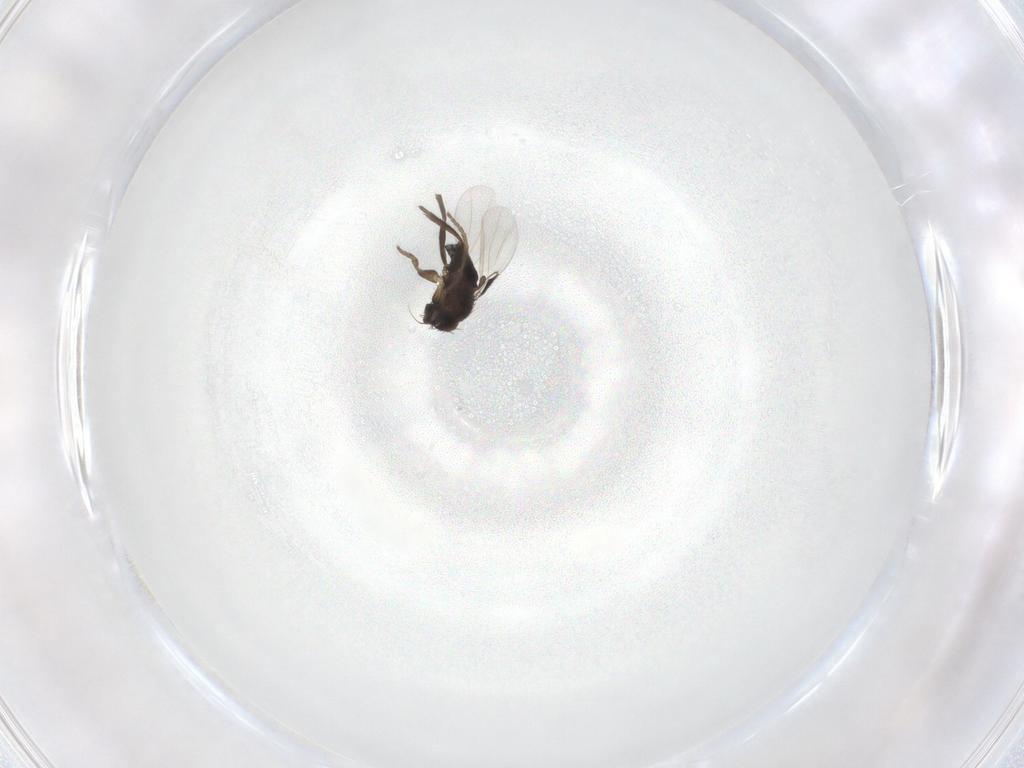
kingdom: Animalia
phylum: Arthropoda
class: Insecta
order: Diptera
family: Phoridae
